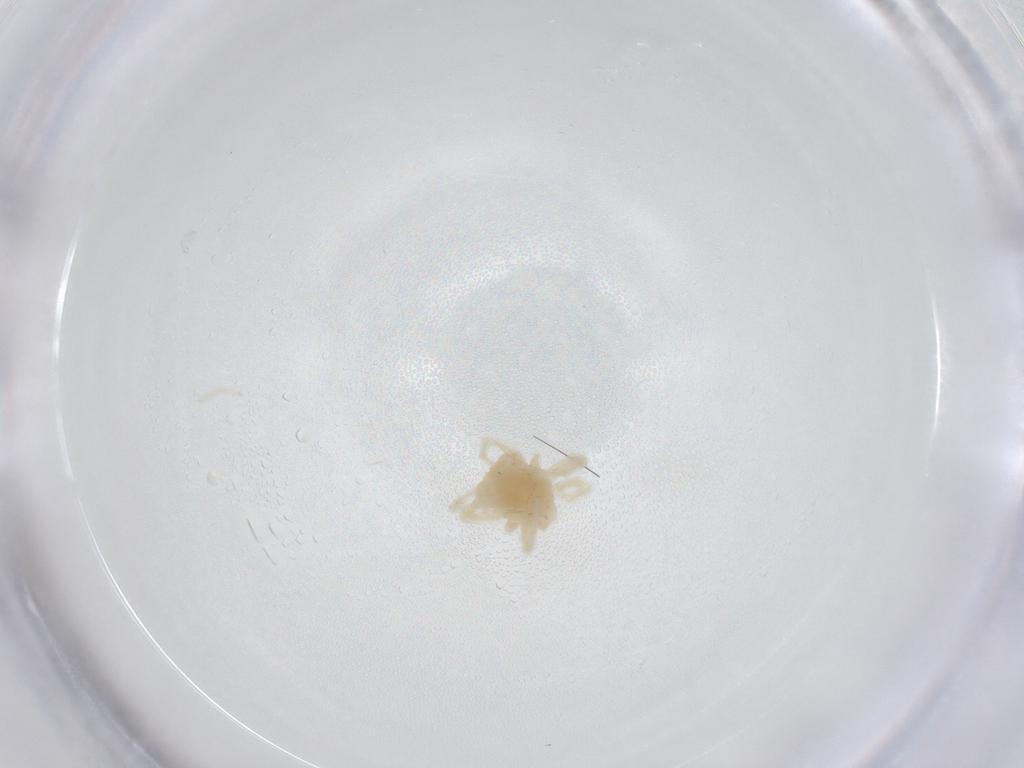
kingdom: Animalia
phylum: Arthropoda
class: Arachnida
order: Trombidiformes
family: Anystidae
